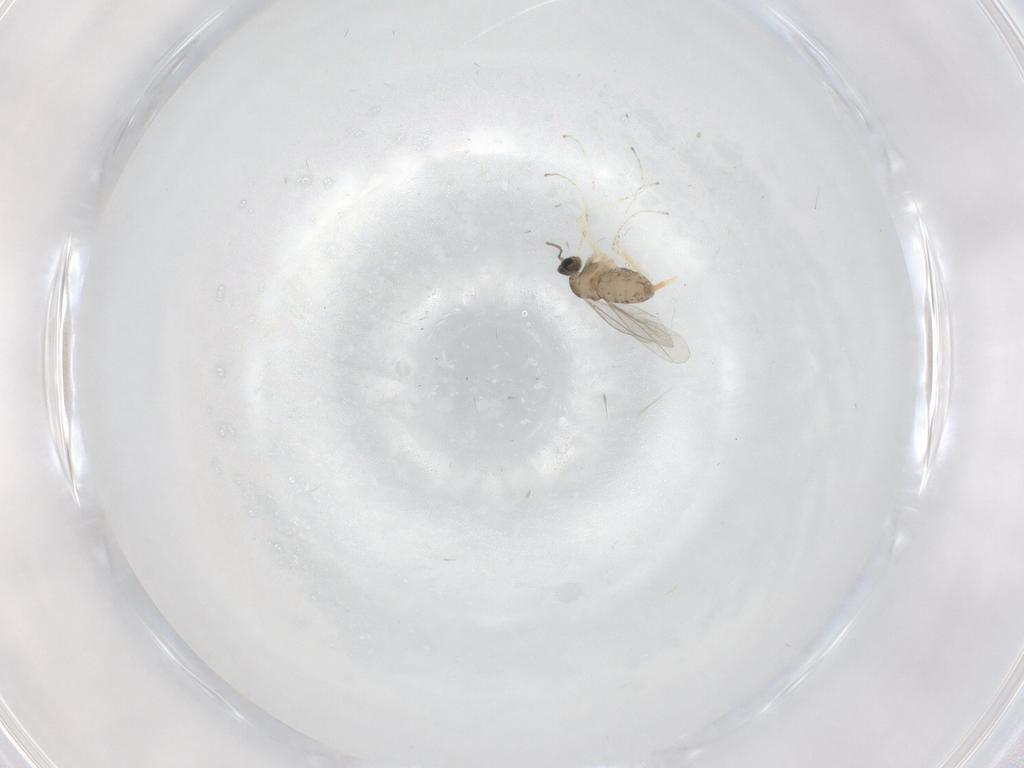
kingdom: Animalia
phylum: Arthropoda
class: Insecta
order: Diptera
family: Cecidomyiidae
